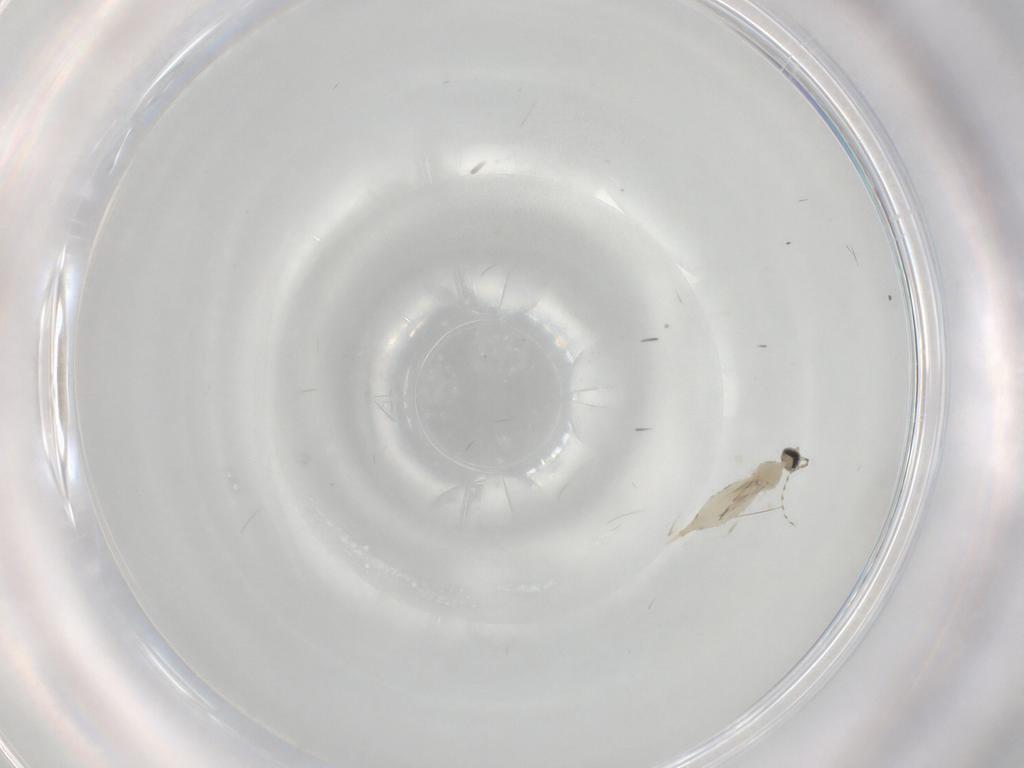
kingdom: Animalia
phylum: Arthropoda
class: Insecta
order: Diptera
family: Cecidomyiidae
